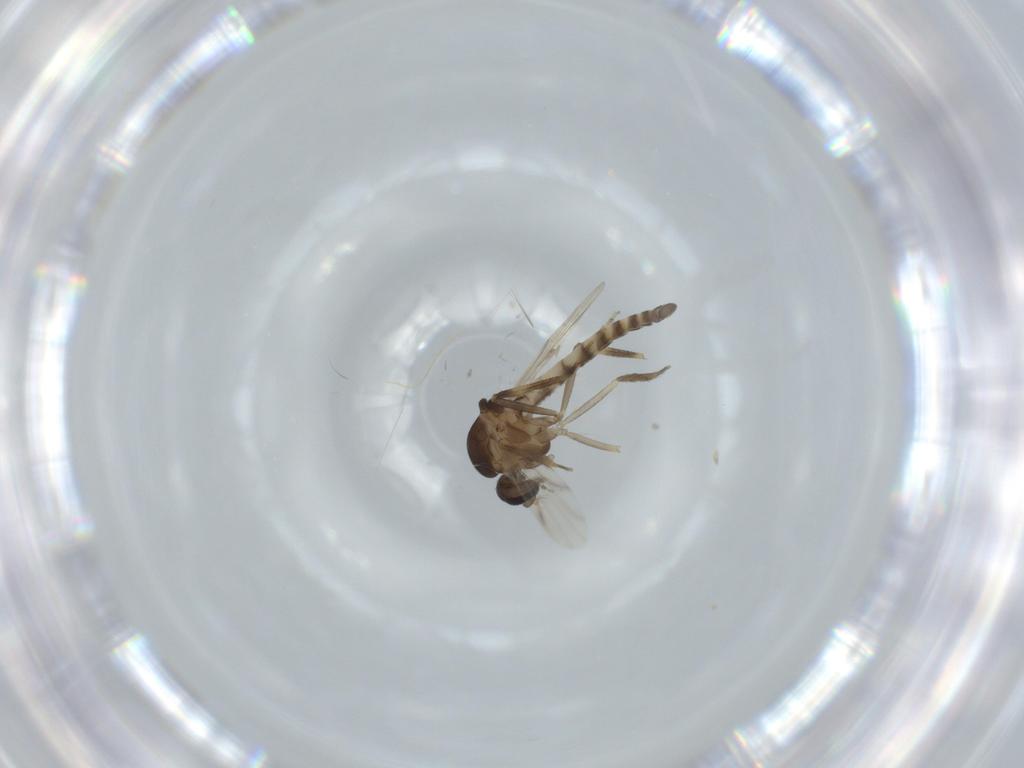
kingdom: Animalia
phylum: Arthropoda
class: Insecta
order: Diptera
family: Ceratopogonidae
